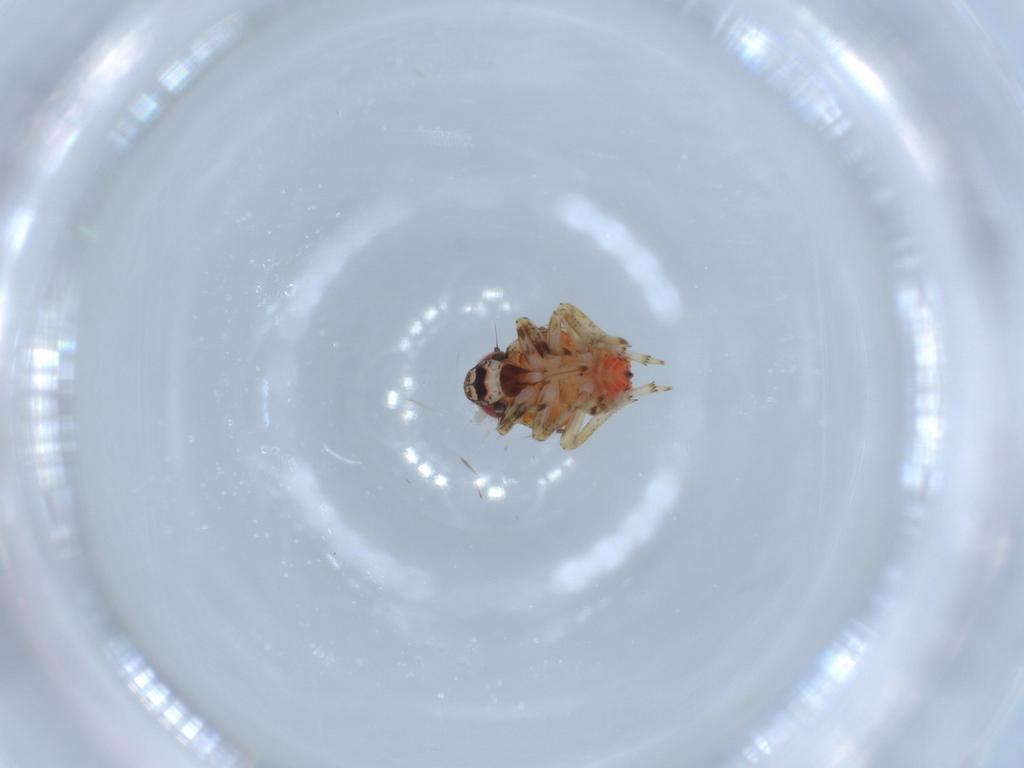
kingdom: Animalia
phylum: Arthropoda
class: Insecta
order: Hemiptera
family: Issidae
